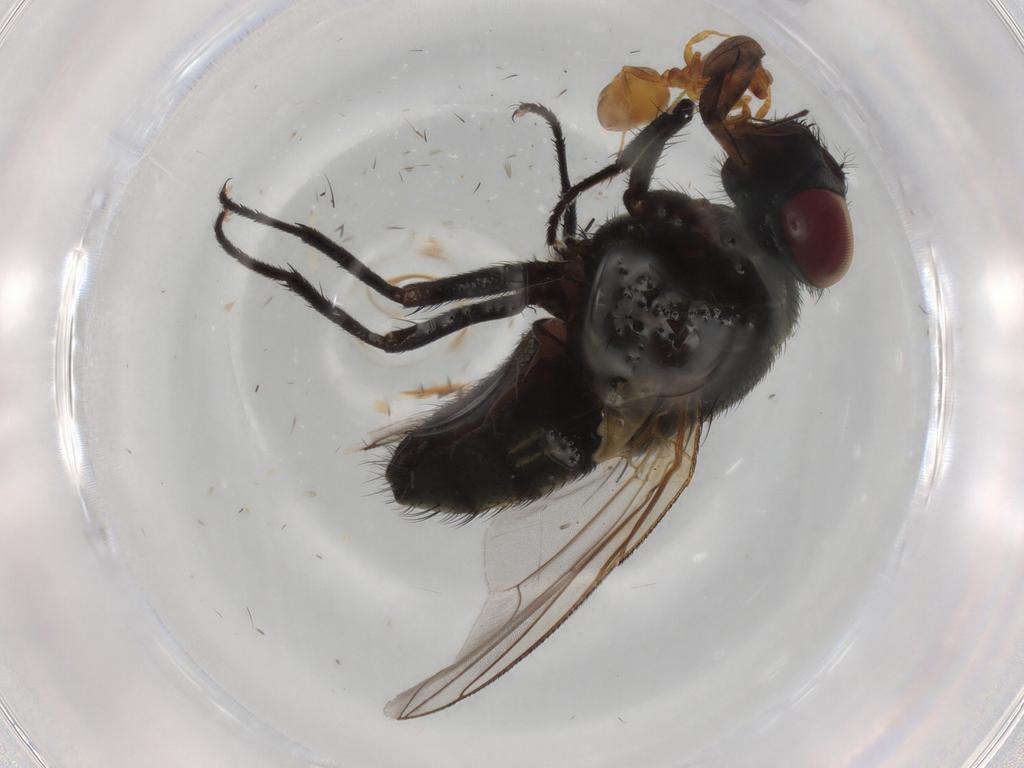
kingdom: Animalia
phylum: Arthropoda
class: Insecta
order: Diptera
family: Muscidae
